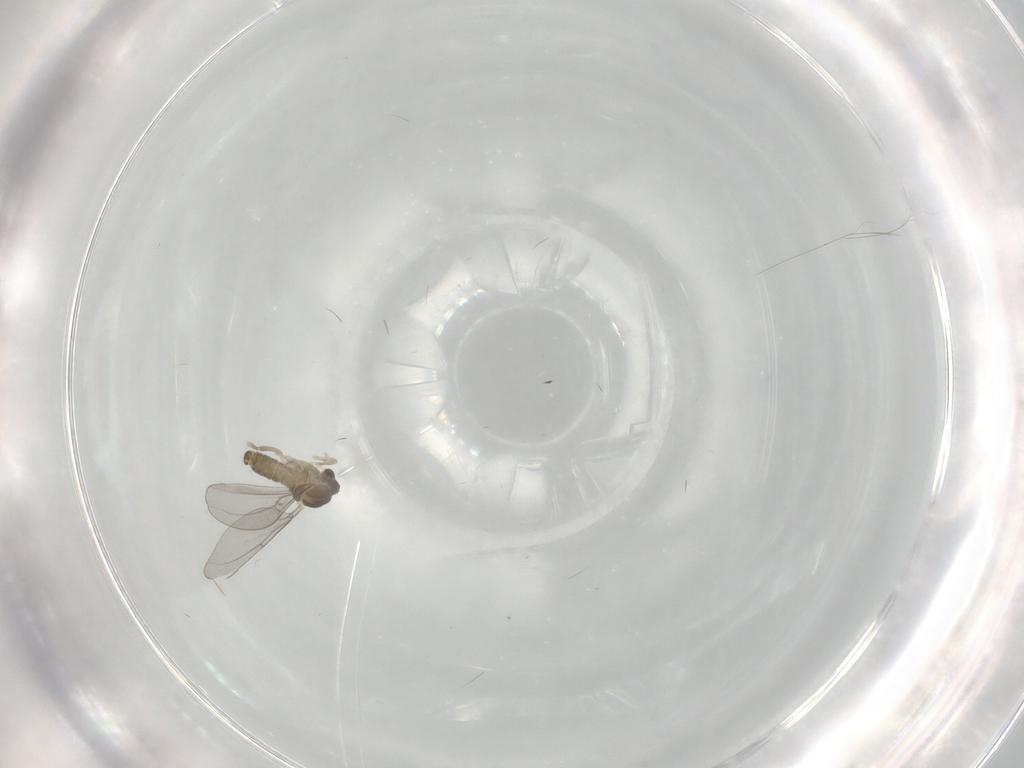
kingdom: Animalia
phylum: Arthropoda
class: Insecta
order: Diptera
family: Cecidomyiidae
